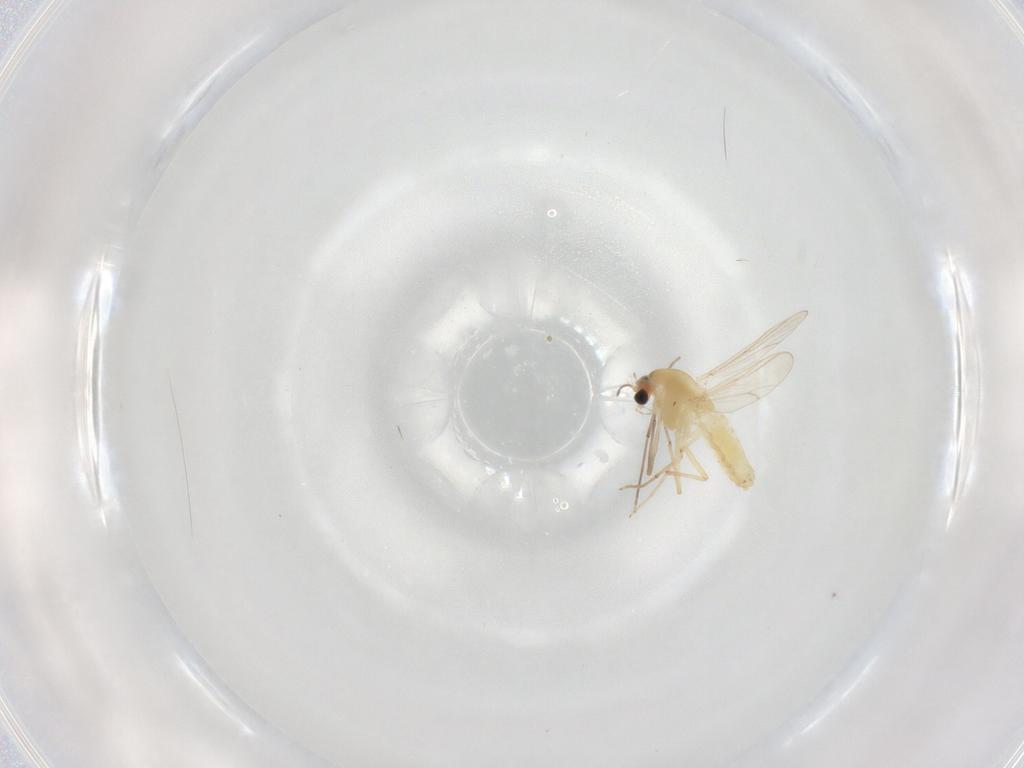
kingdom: Animalia
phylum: Arthropoda
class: Insecta
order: Diptera
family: Chironomidae
